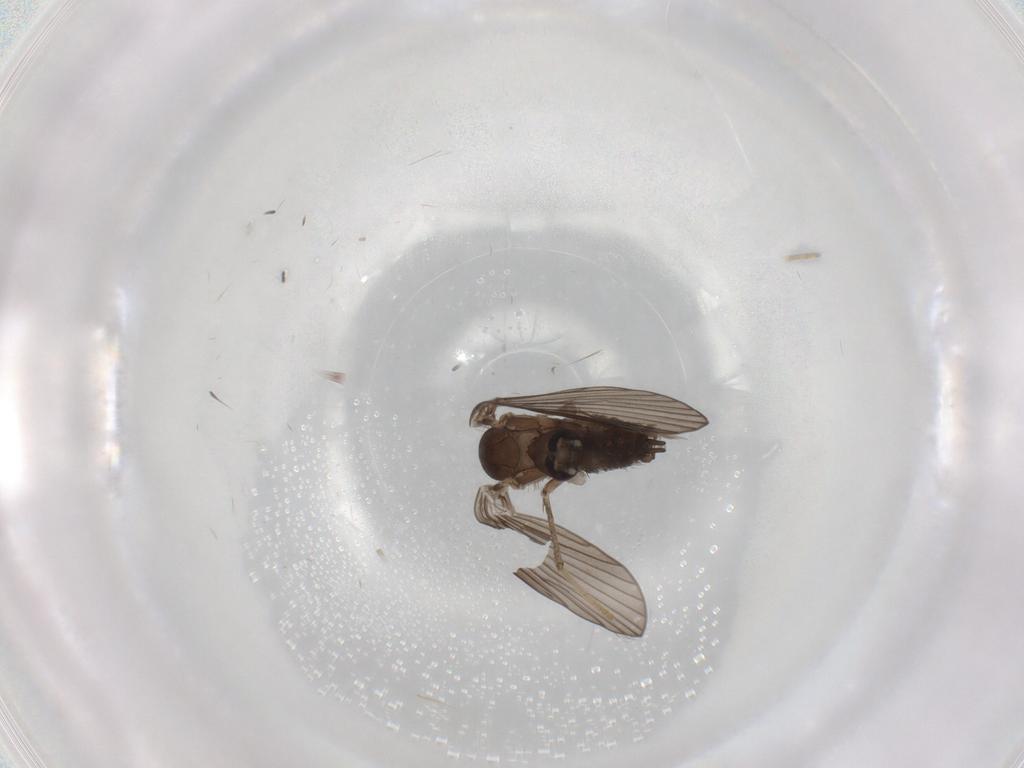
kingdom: Animalia
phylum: Arthropoda
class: Insecta
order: Diptera
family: Psychodidae
